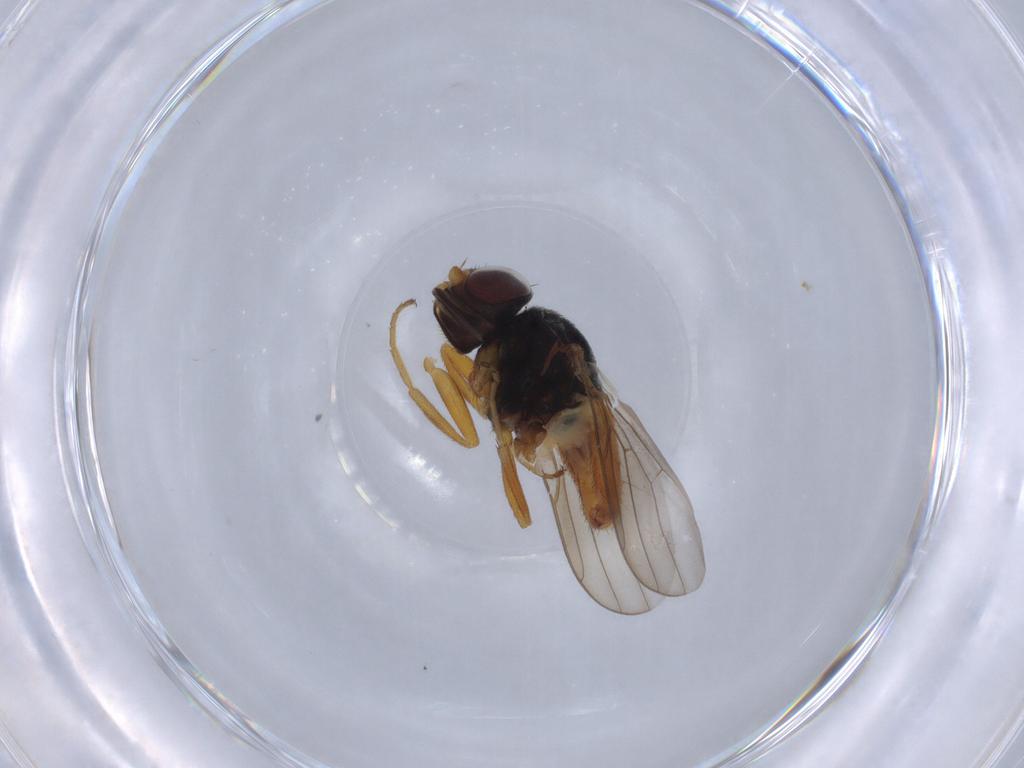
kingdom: Animalia
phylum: Arthropoda
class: Insecta
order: Diptera
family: Chloropidae
